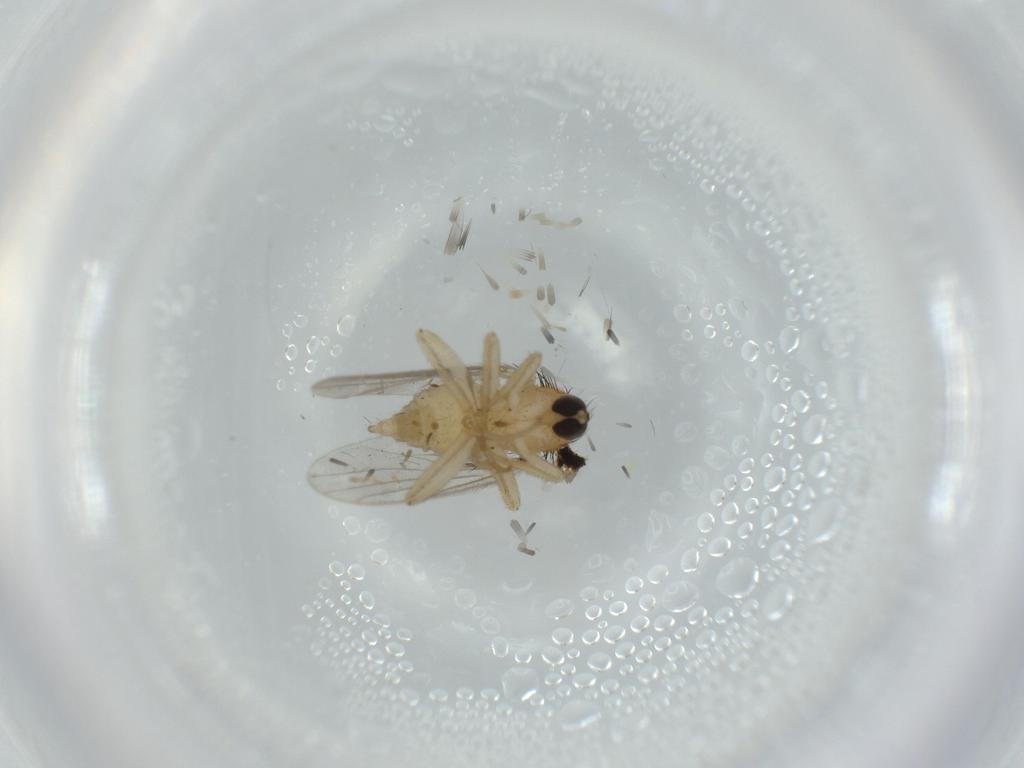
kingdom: Animalia
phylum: Arthropoda
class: Insecta
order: Diptera
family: Hybotidae
